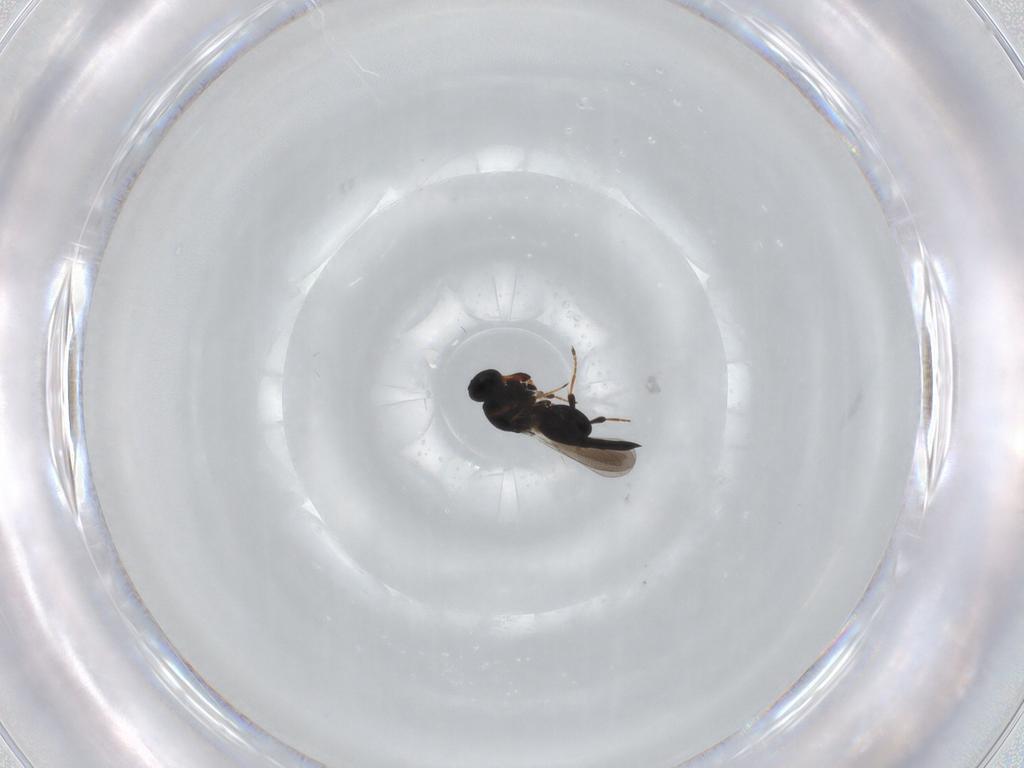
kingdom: Animalia
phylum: Arthropoda
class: Insecta
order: Hymenoptera
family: Platygastridae
